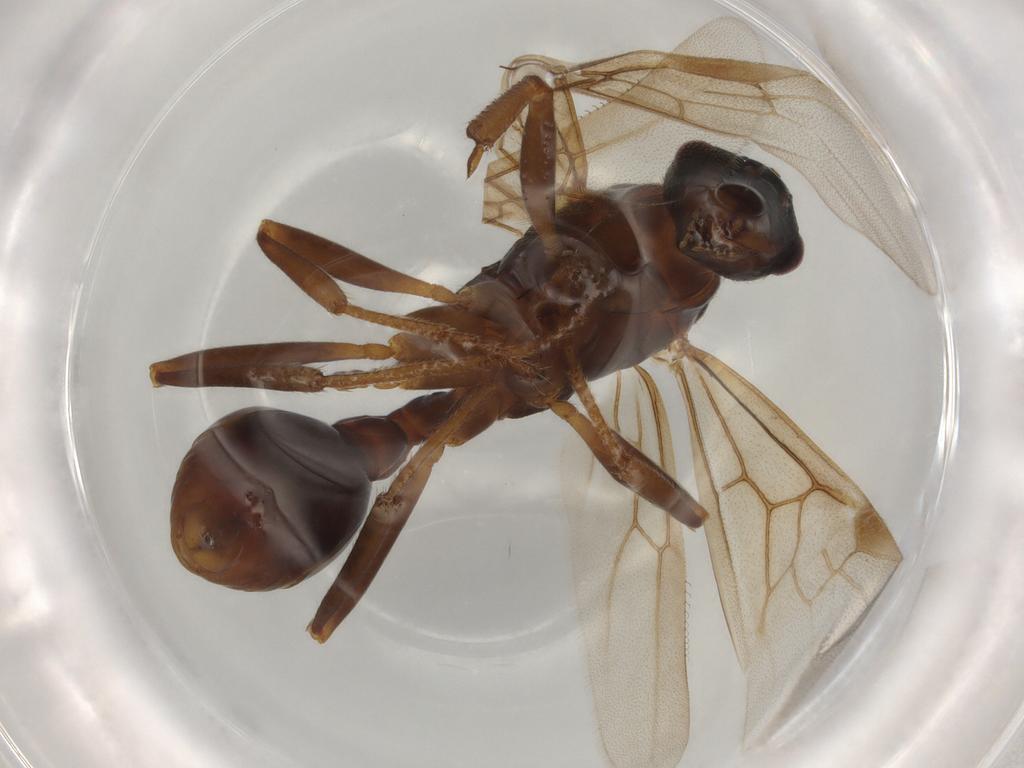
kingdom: Animalia
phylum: Arthropoda
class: Insecta
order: Hymenoptera
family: Formicidae
